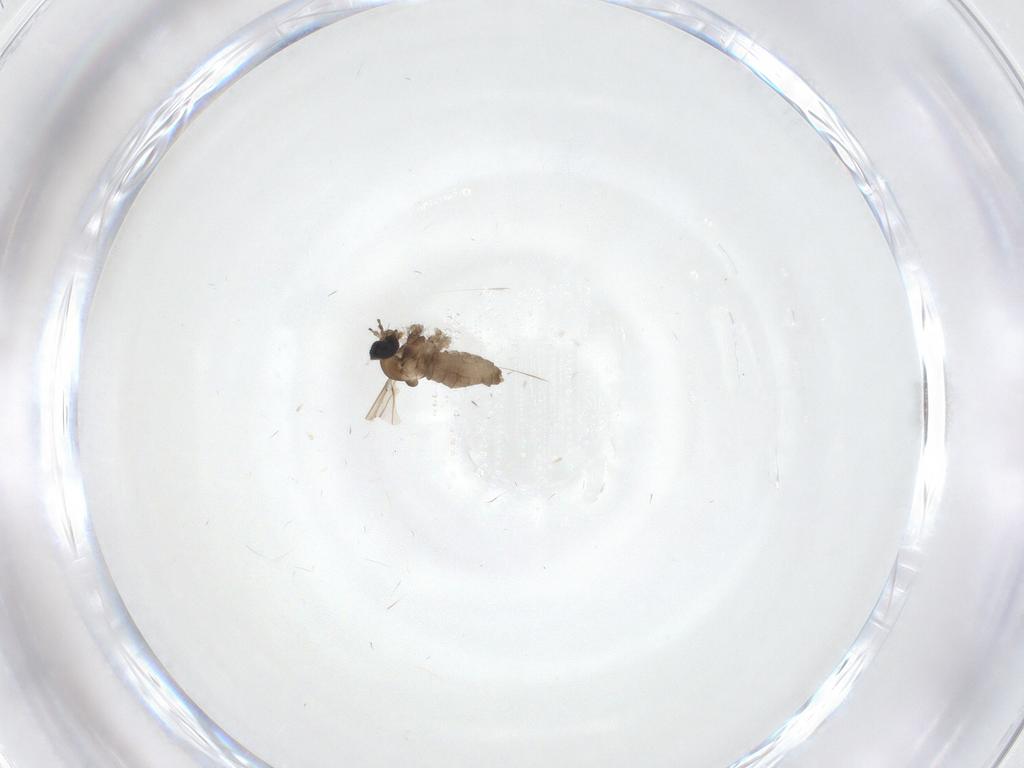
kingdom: Animalia
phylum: Arthropoda
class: Insecta
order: Diptera
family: Cecidomyiidae
